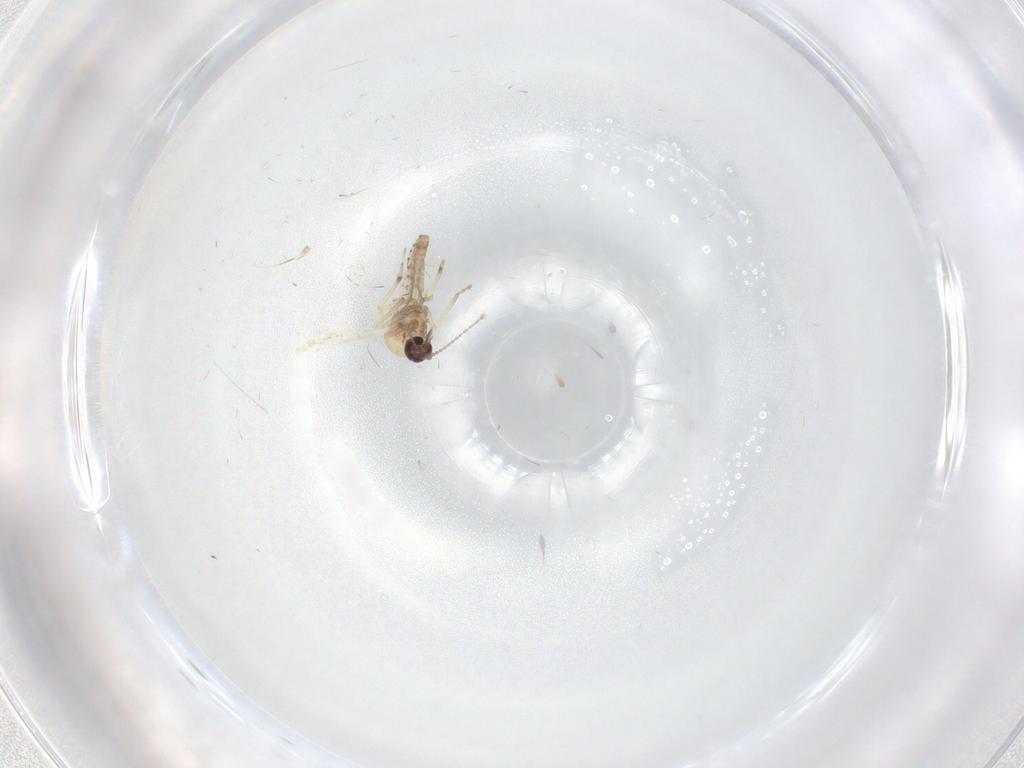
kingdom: Animalia
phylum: Arthropoda
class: Insecta
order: Diptera
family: Ceratopogonidae
